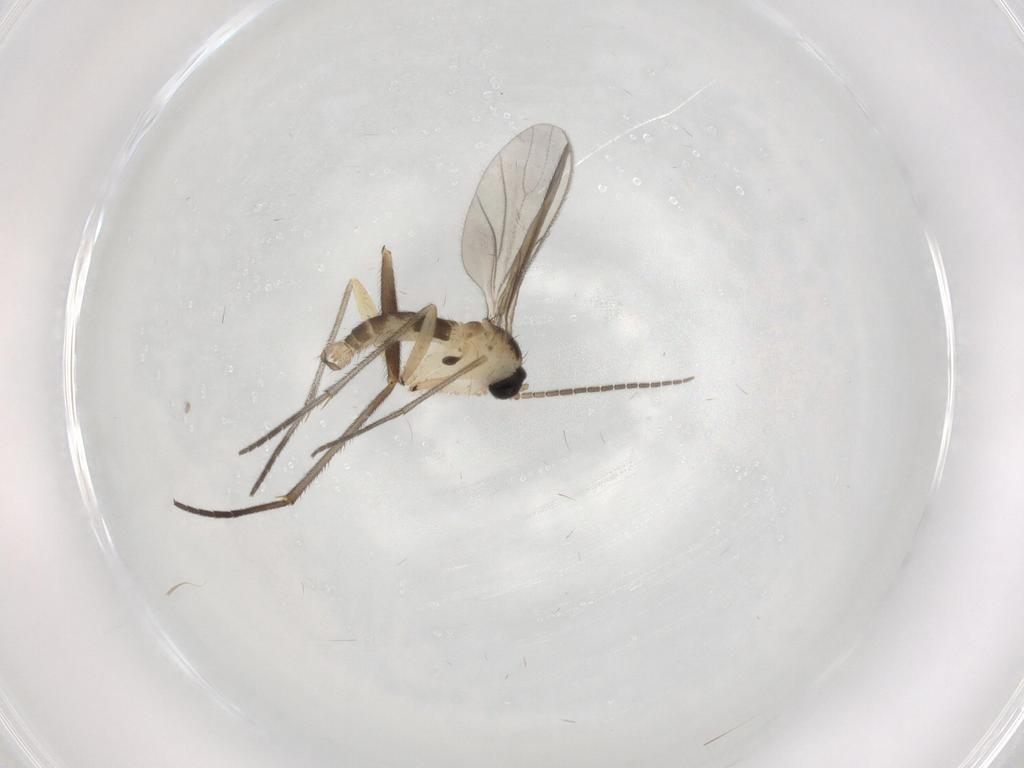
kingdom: Animalia
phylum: Arthropoda
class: Insecta
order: Diptera
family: Sciaridae
